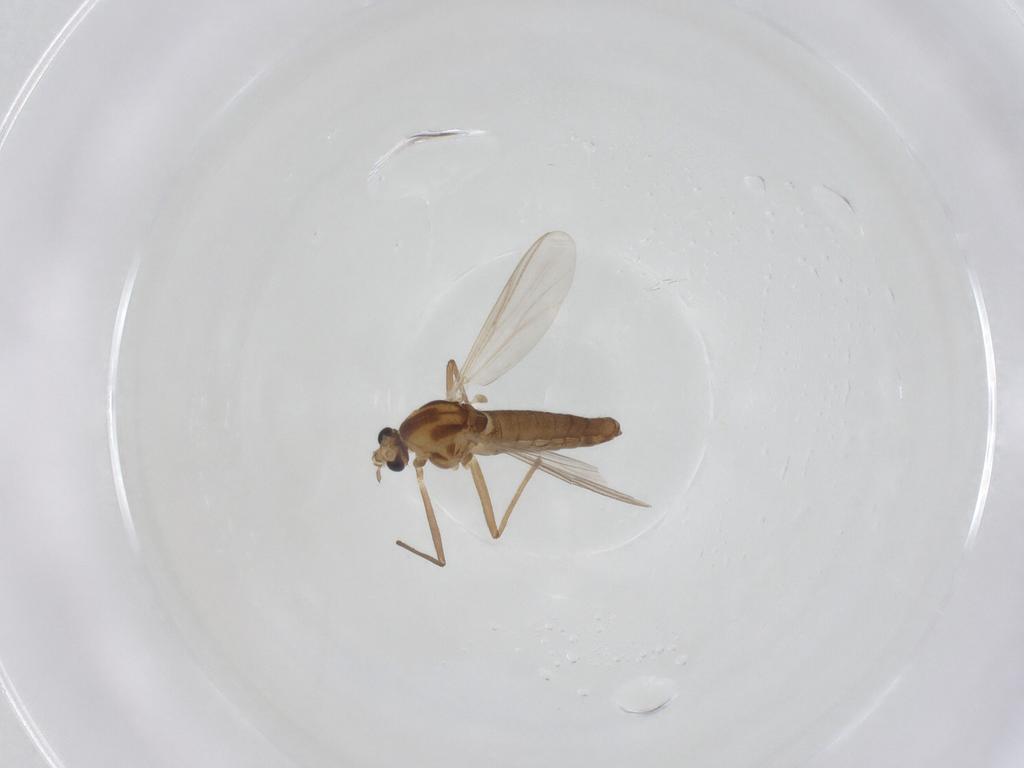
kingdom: Animalia
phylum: Arthropoda
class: Insecta
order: Diptera
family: Chironomidae
